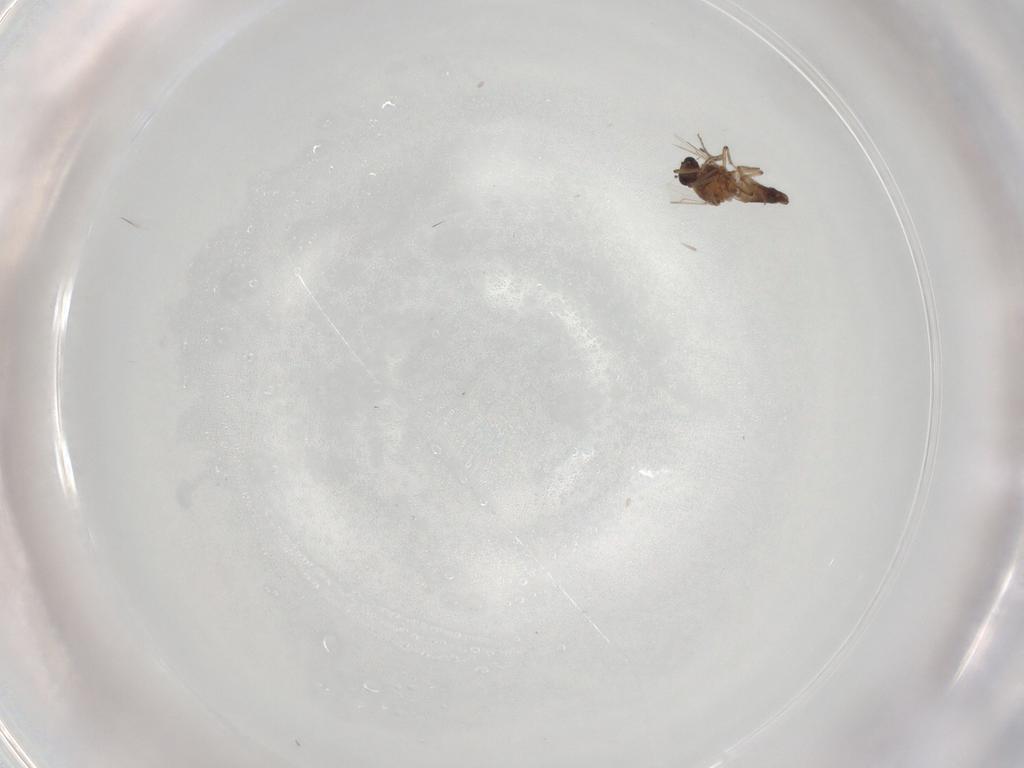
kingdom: Animalia
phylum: Arthropoda
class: Insecta
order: Diptera
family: Ceratopogonidae
